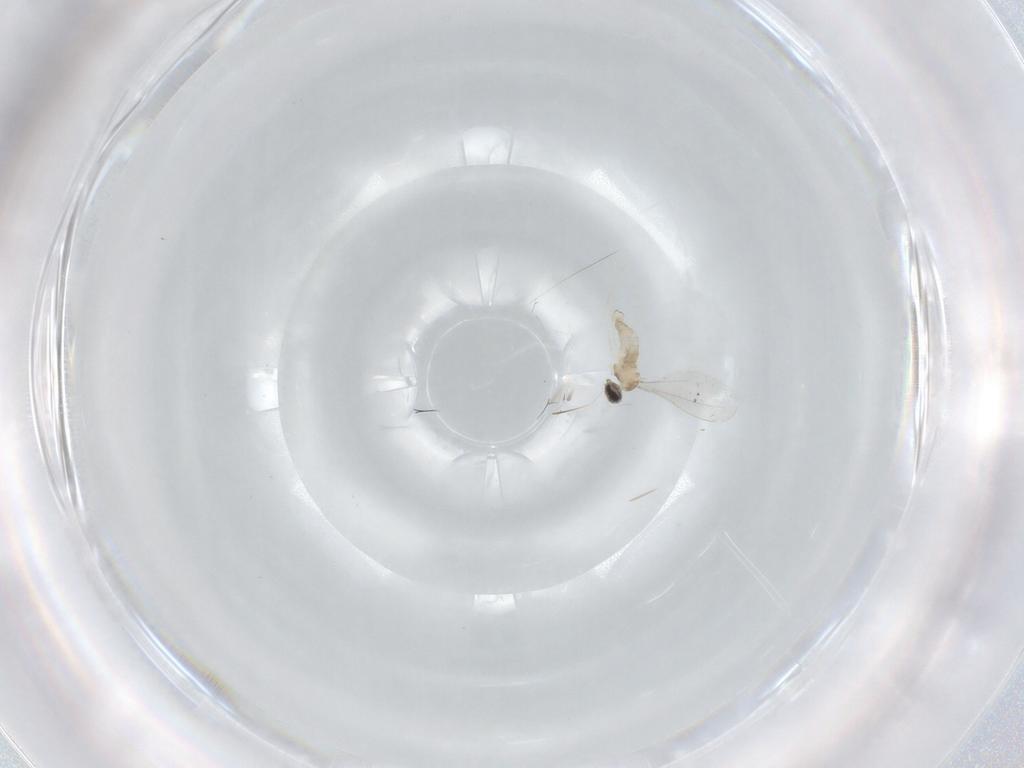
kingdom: Animalia
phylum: Arthropoda
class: Insecta
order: Diptera
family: Cecidomyiidae
